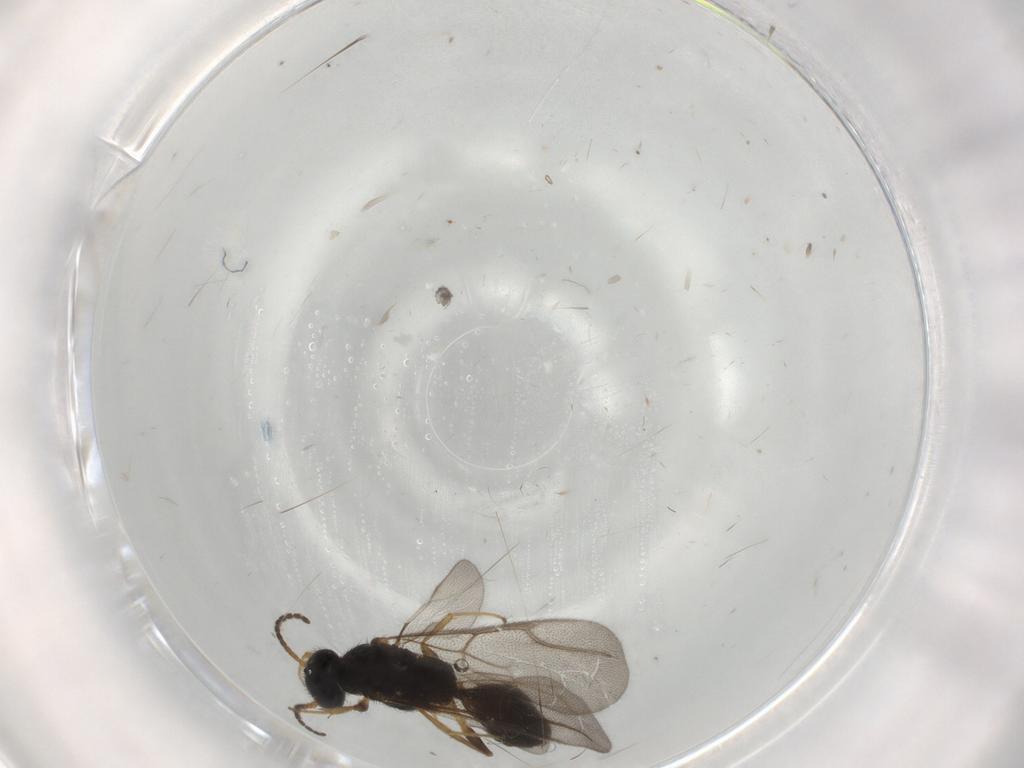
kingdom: Animalia
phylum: Arthropoda
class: Insecta
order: Hymenoptera
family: Bethylidae
